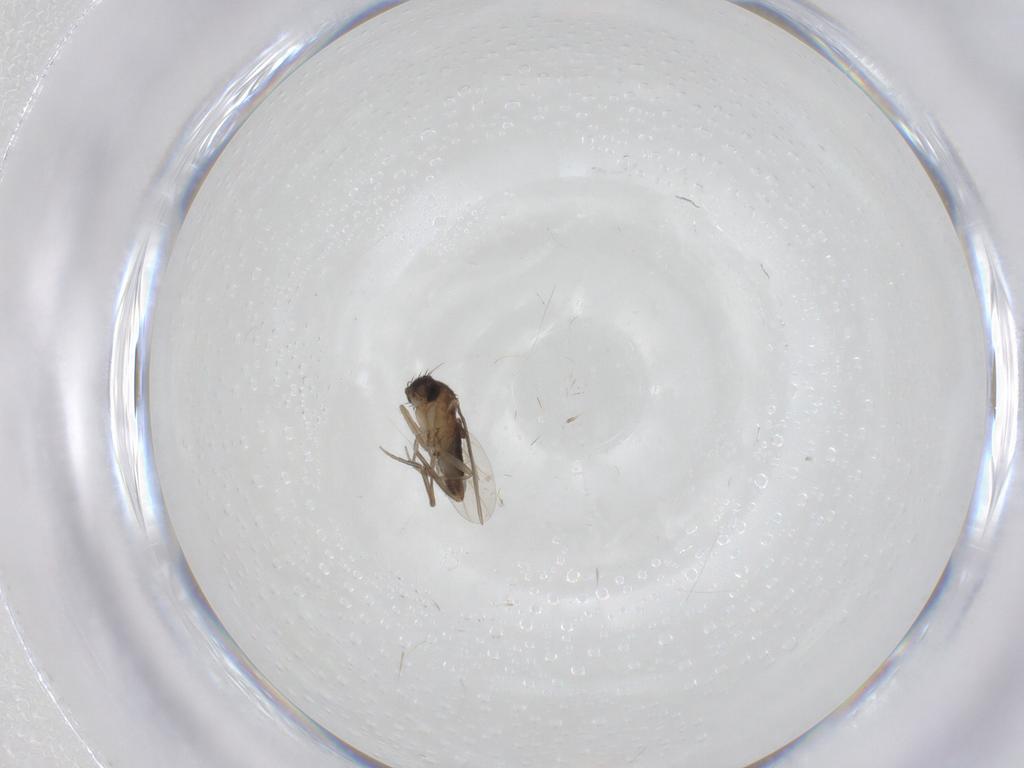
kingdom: Animalia
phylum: Arthropoda
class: Insecta
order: Diptera
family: Phoridae
